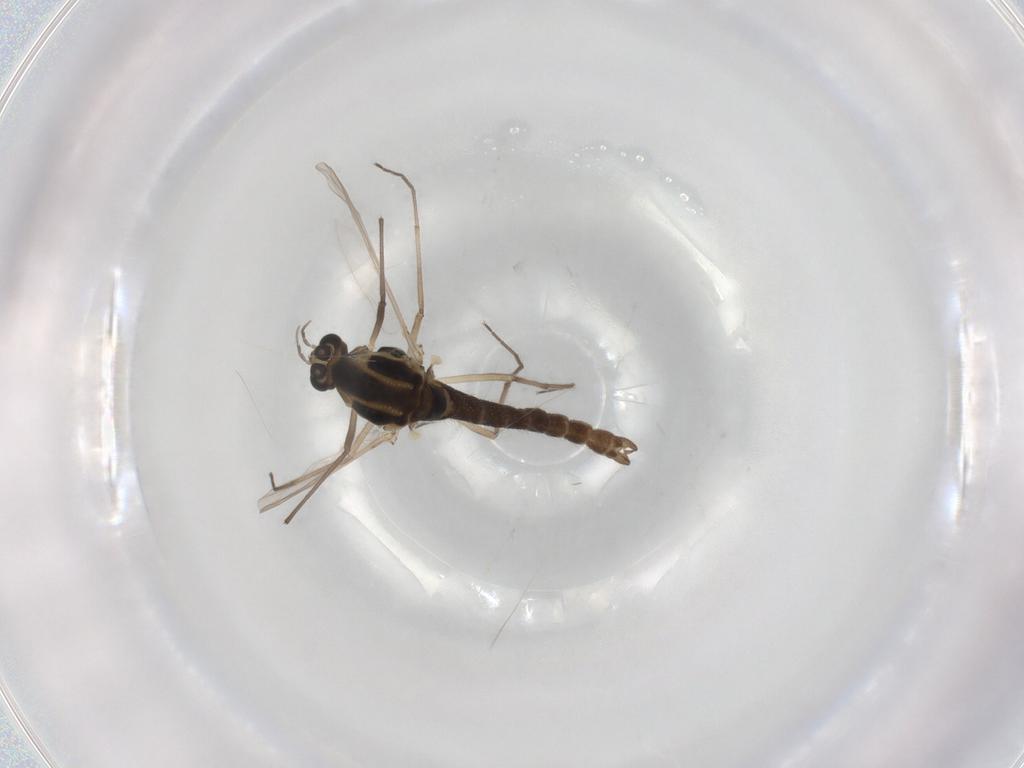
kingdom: Animalia
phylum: Arthropoda
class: Insecta
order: Diptera
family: Chironomidae
